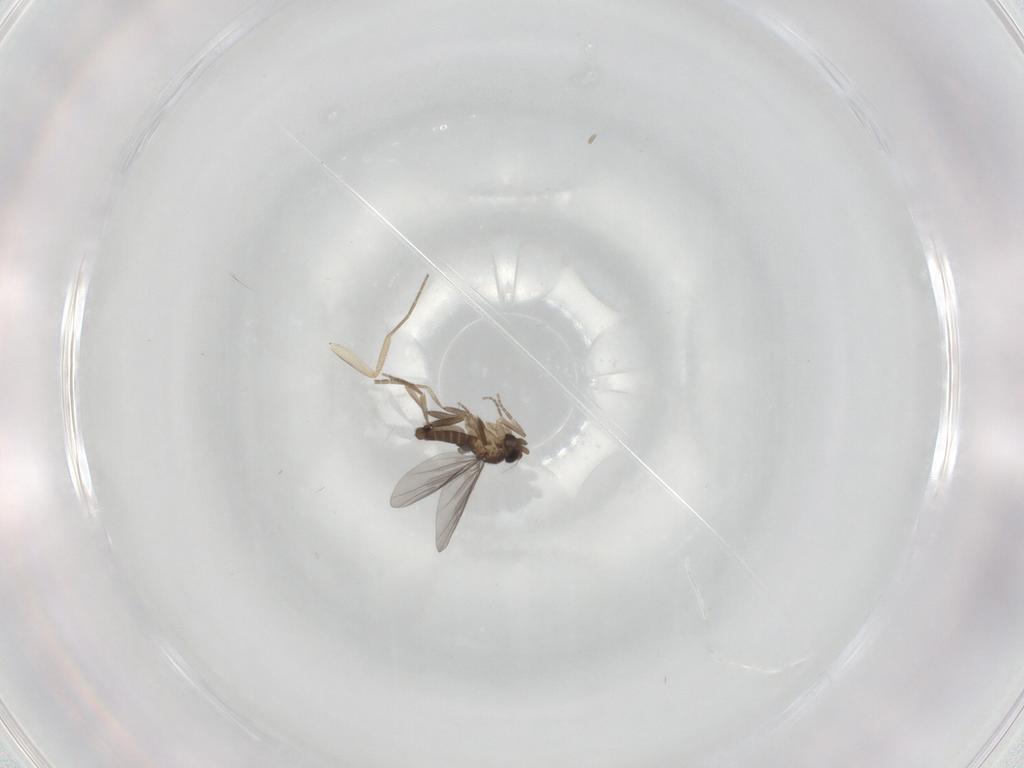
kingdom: Animalia
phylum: Arthropoda
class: Insecta
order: Diptera
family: Phoridae
